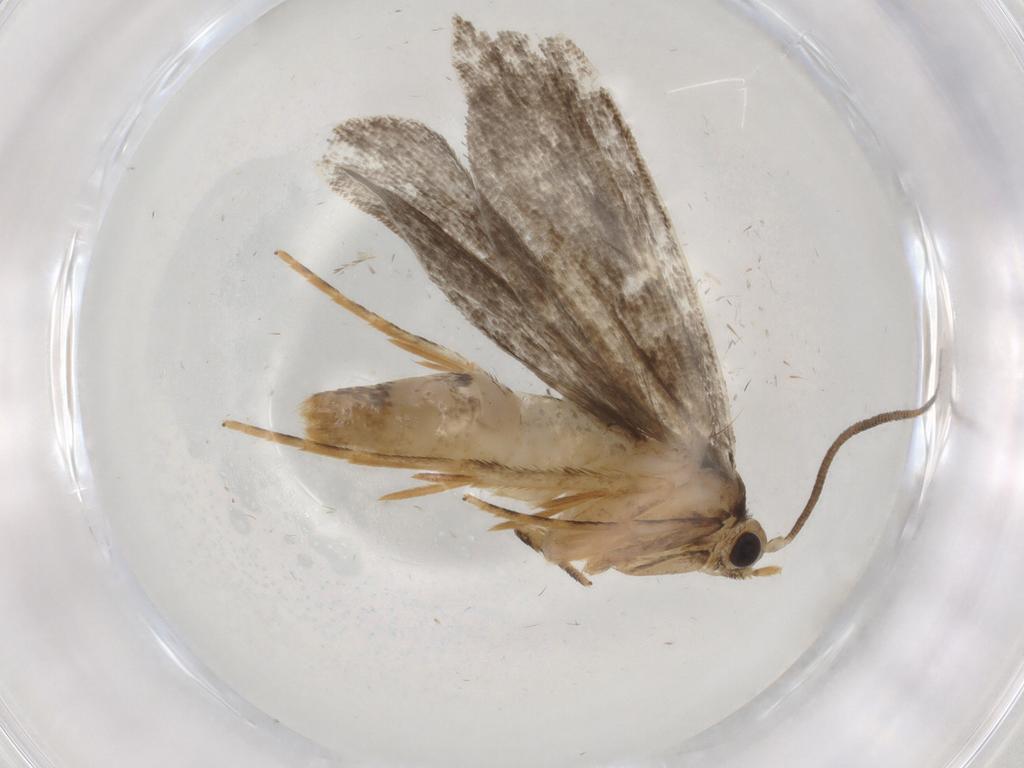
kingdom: Animalia
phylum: Arthropoda
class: Insecta
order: Lepidoptera
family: Tineidae
